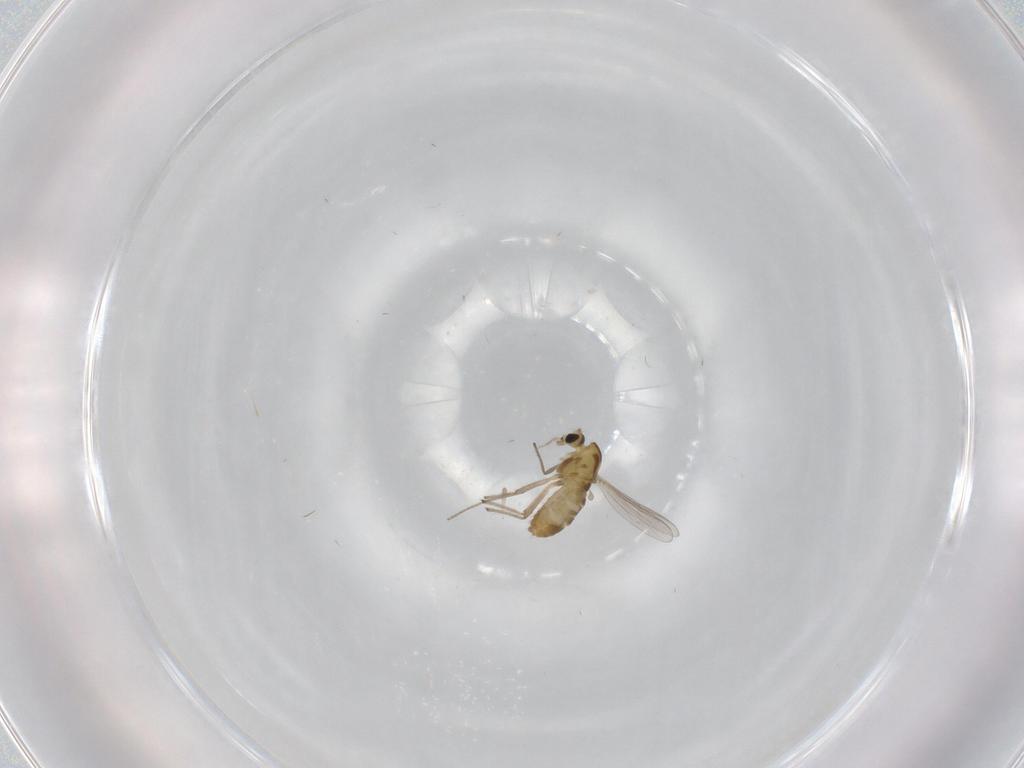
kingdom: Animalia
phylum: Arthropoda
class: Insecta
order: Diptera
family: Chironomidae
